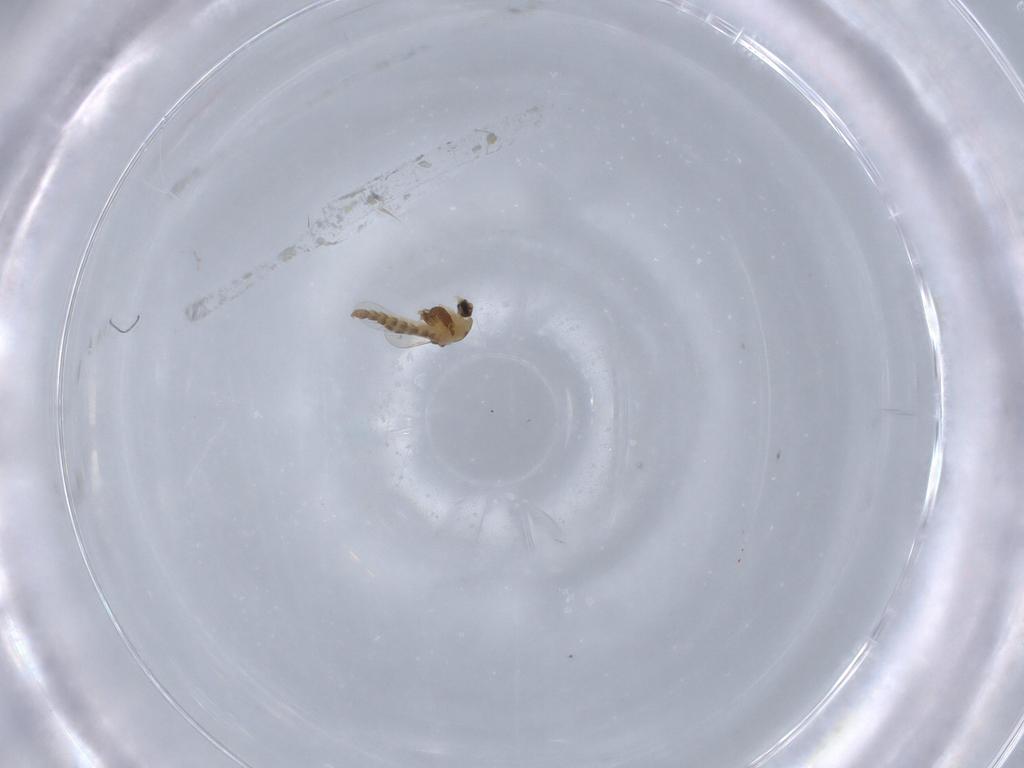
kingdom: Animalia
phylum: Arthropoda
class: Insecta
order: Diptera
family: Chironomidae
